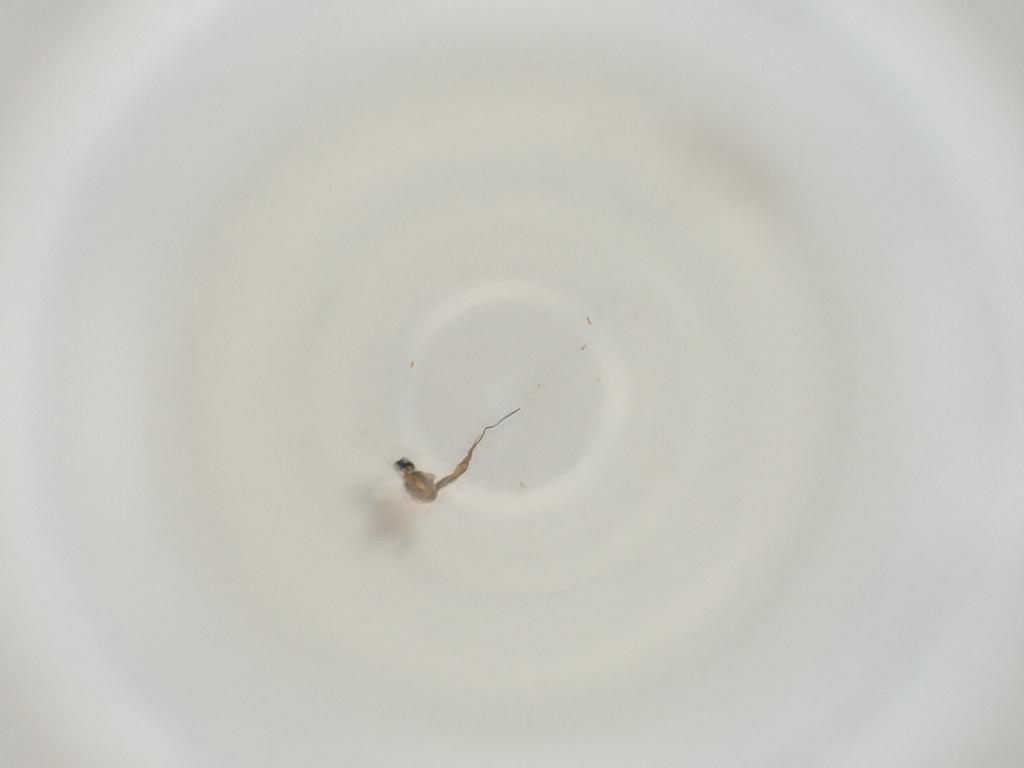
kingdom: Animalia
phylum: Arthropoda
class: Insecta
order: Diptera
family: Cecidomyiidae
